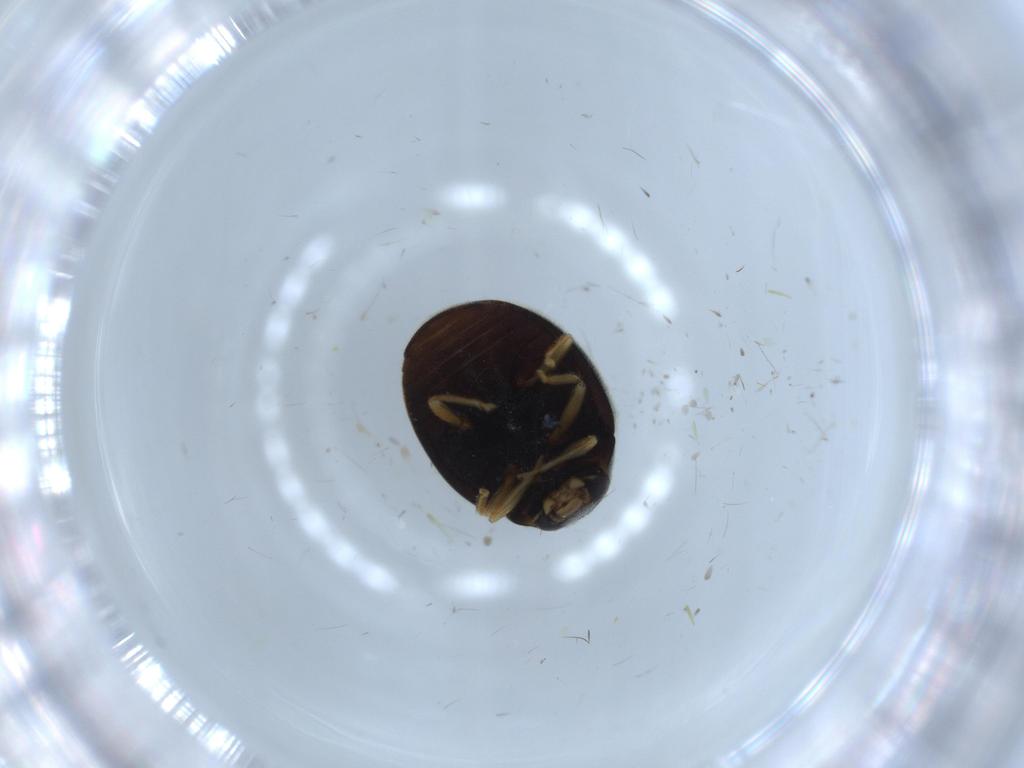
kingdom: Animalia
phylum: Arthropoda
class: Insecta
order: Coleoptera
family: Coccinellidae
